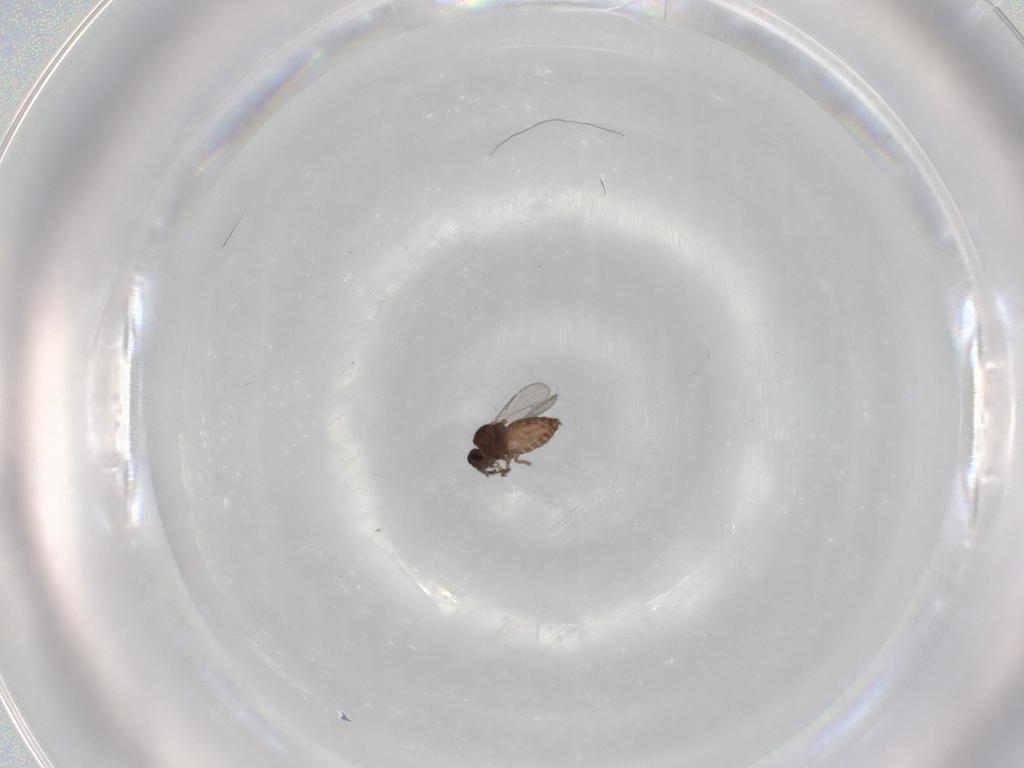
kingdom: Animalia
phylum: Arthropoda
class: Insecta
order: Diptera
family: Ceratopogonidae
